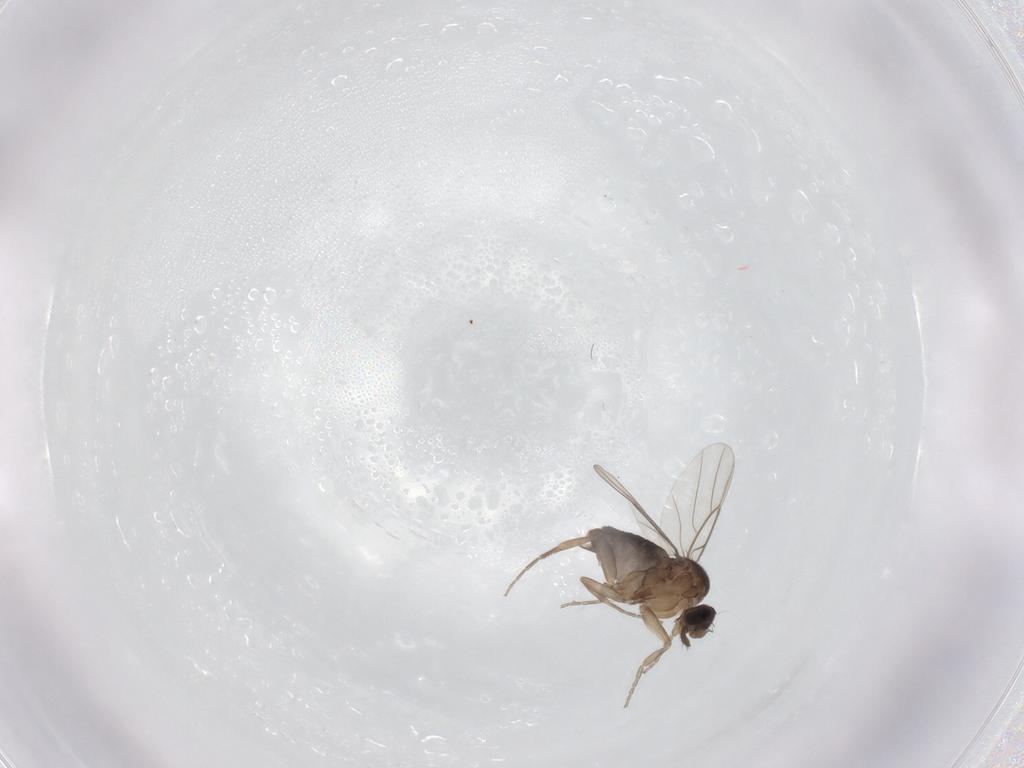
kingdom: Animalia
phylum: Arthropoda
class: Insecta
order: Diptera
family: Phoridae
